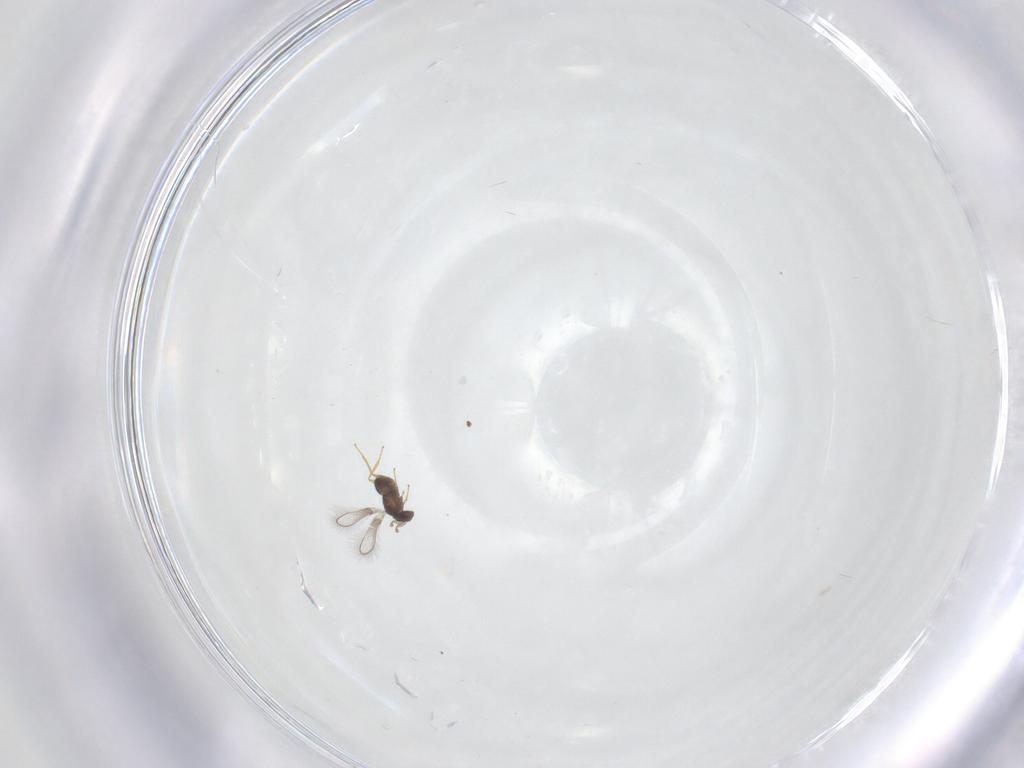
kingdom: Animalia
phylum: Arthropoda
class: Insecta
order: Hymenoptera
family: Mymaridae
